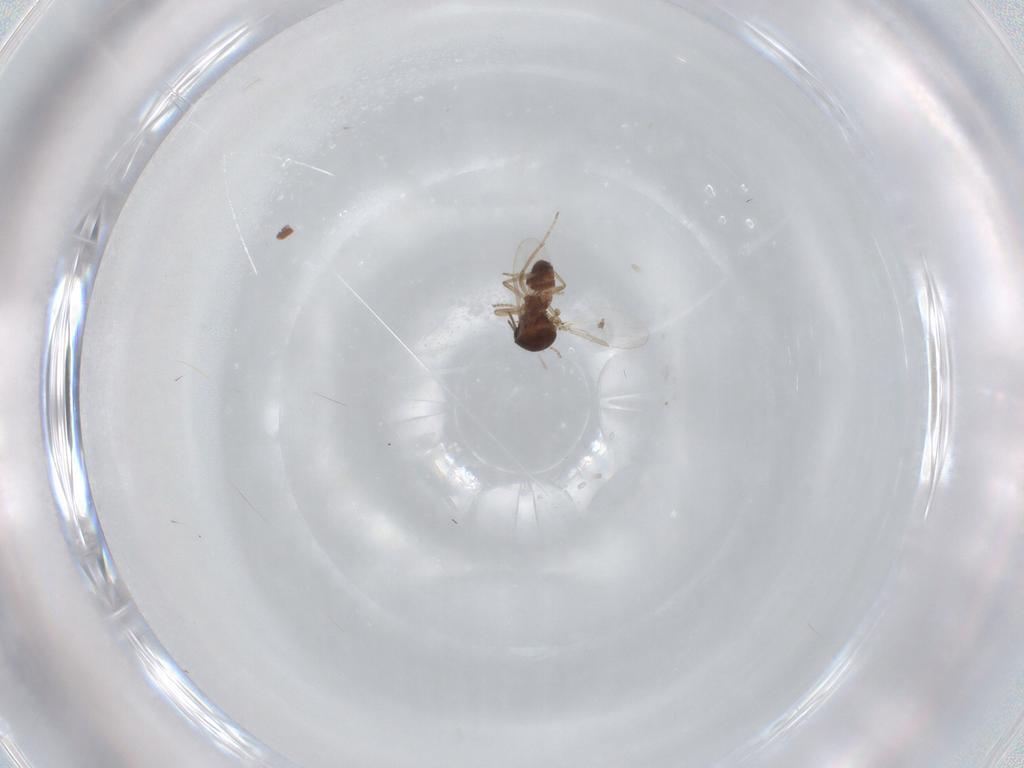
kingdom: Animalia
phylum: Arthropoda
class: Insecta
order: Diptera
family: Ceratopogonidae
